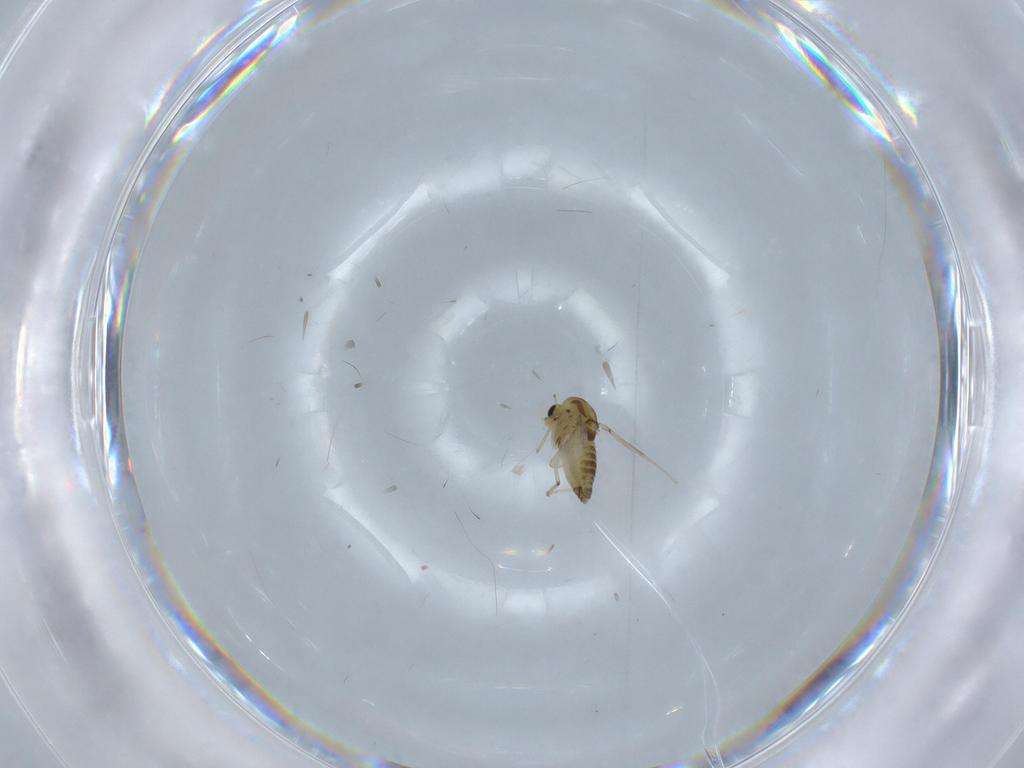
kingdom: Animalia
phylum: Arthropoda
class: Insecta
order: Diptera
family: Chironomidae
